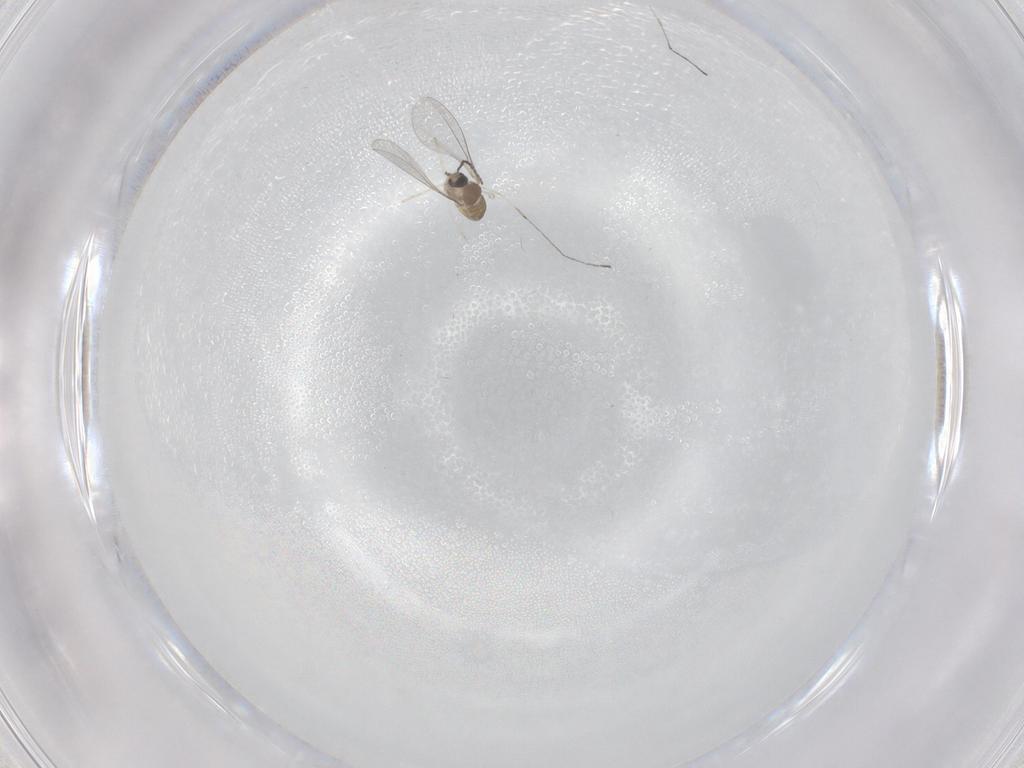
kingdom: Animalia
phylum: Arthropoda
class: Insecta
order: Diptera
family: Cecidomyiidae
